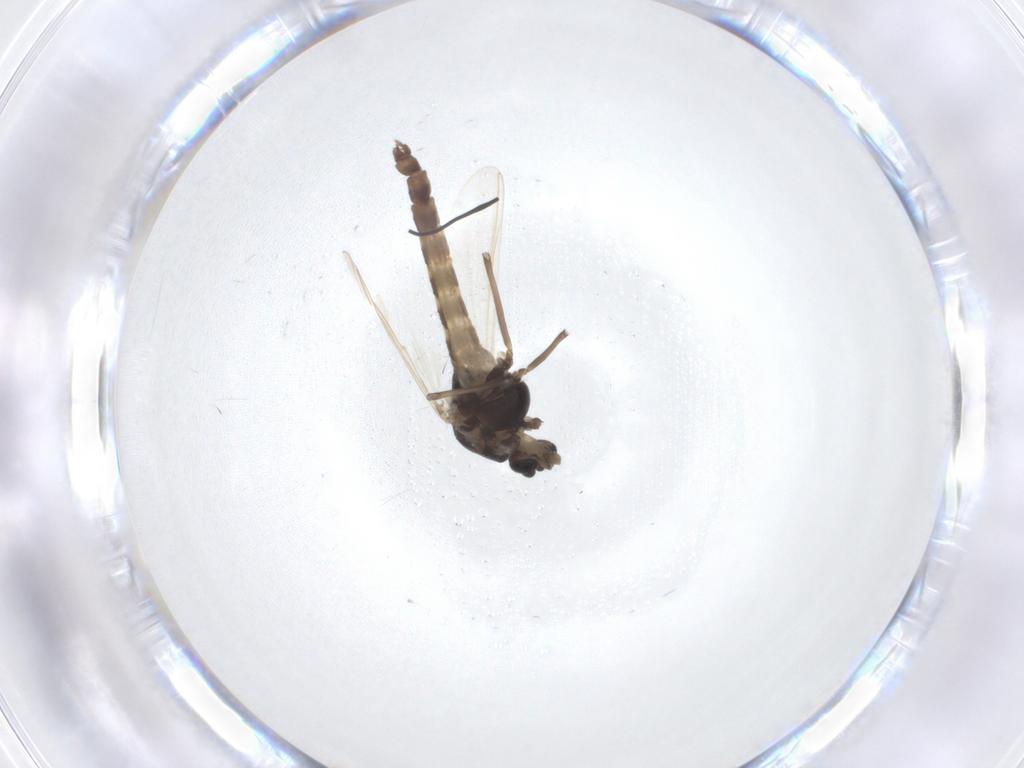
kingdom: Animalia
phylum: Arthropoda
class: Insecta
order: Diptera
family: Chironomidae
